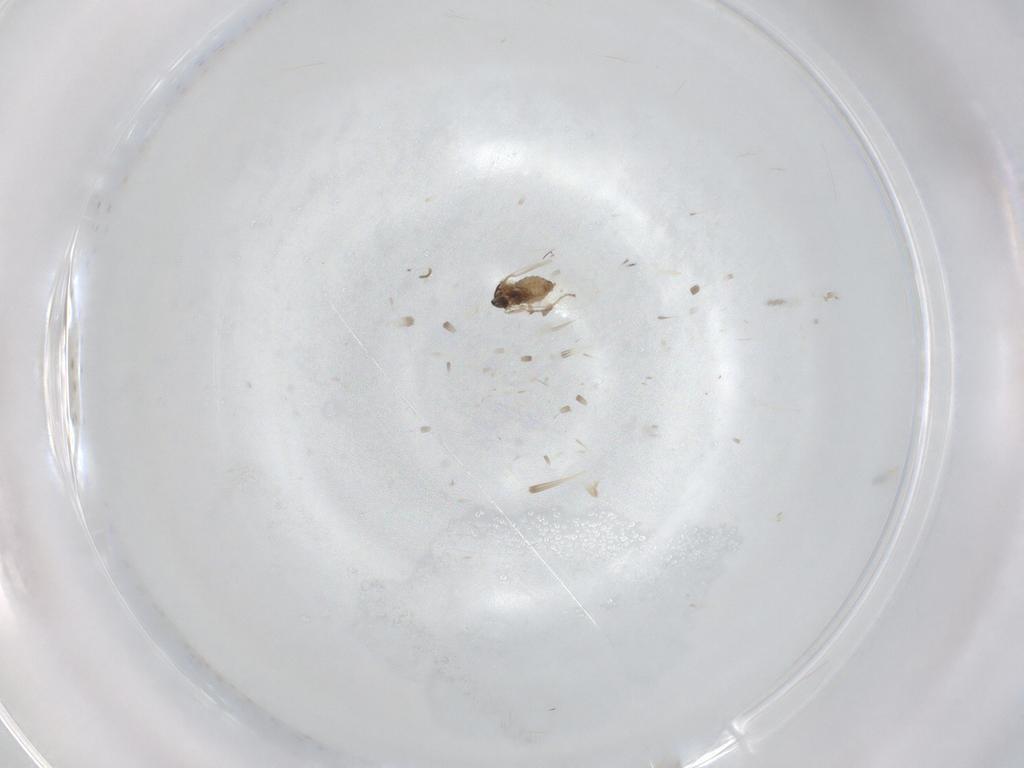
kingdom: Animalia
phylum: Arthropoda
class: Insecta
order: Diptera
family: Cecidomyiidae
